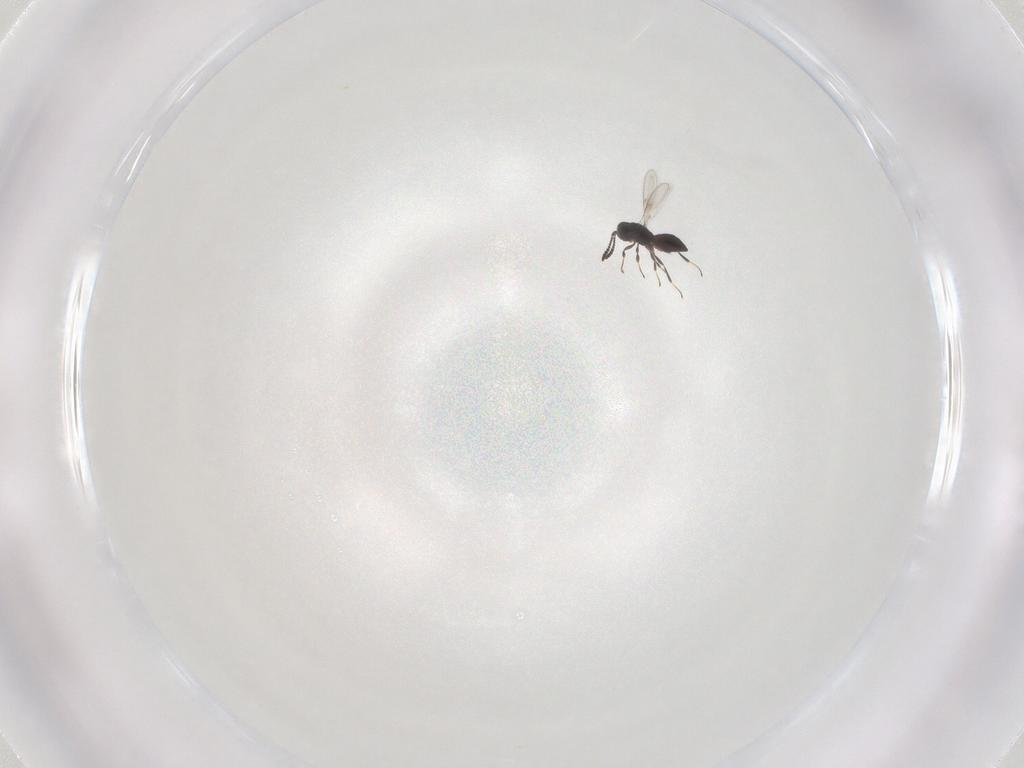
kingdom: Animalia
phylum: Arthropoda
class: Insecta
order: Hymenoptera
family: Scelionidae
